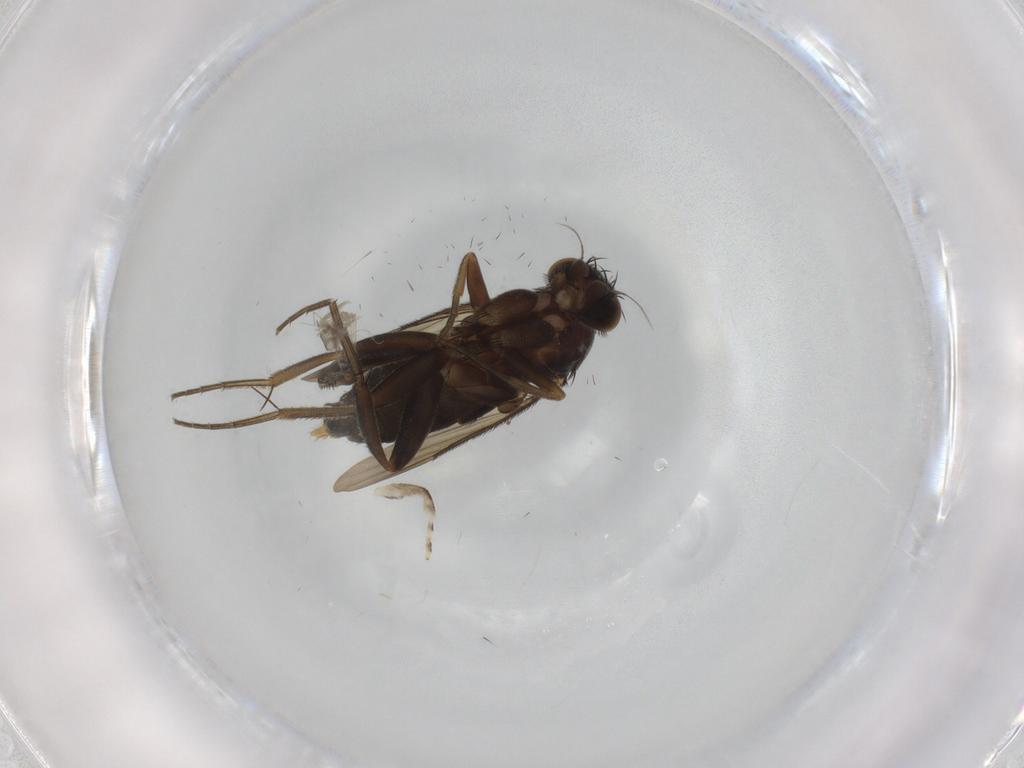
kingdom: Animalia
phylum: Arthropoda
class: Insecta
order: Diptera
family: Phoridae
